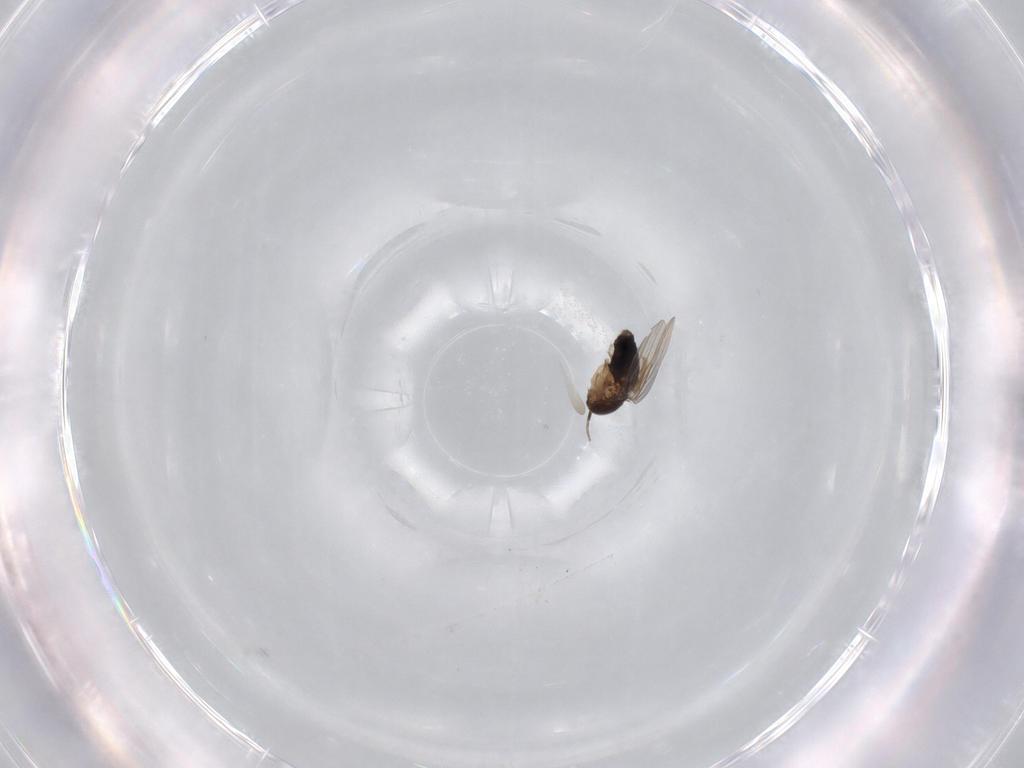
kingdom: Animalia
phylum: Arthropoda
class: Insecta
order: Diptera
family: Phoridae
